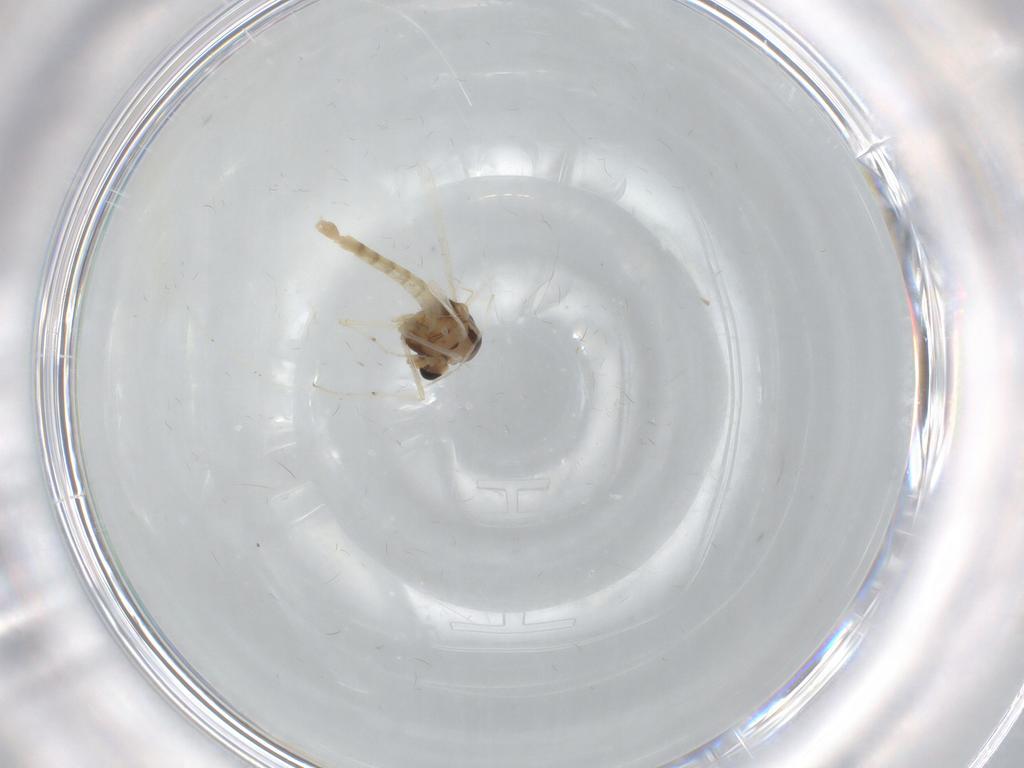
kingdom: Animalia
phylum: Arthropoda
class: Insecta
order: Diptera
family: Chironomidae
